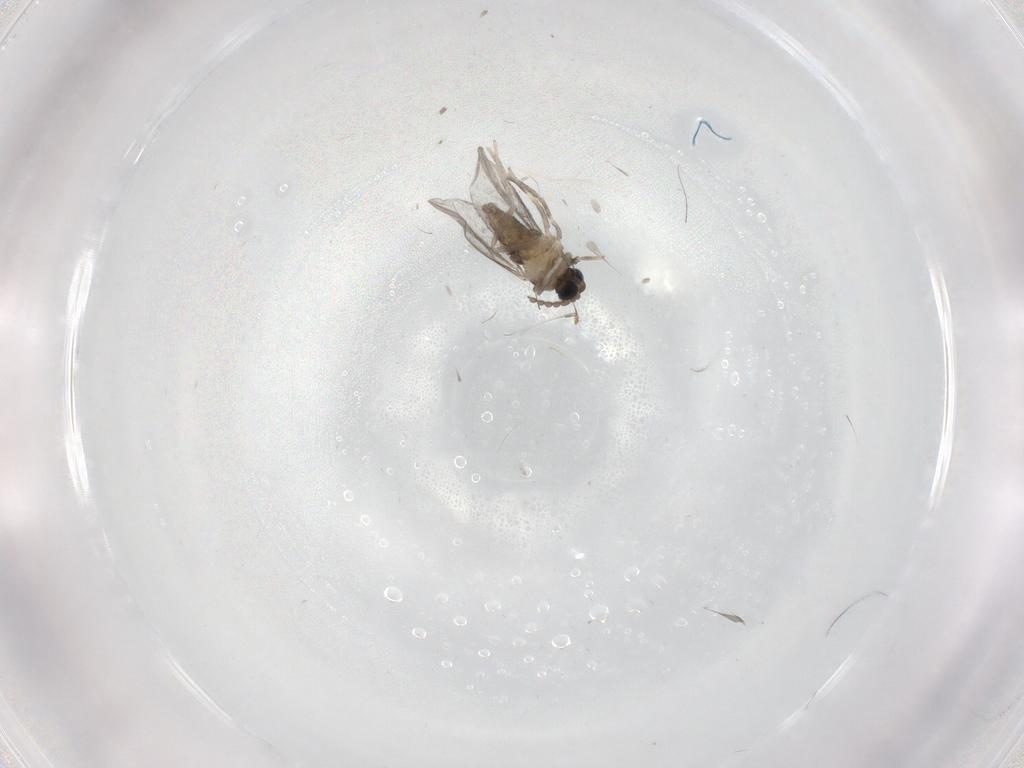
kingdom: Animalia
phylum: Arthropoda
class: Insecta
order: Diptera
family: Cecidomyiidae
